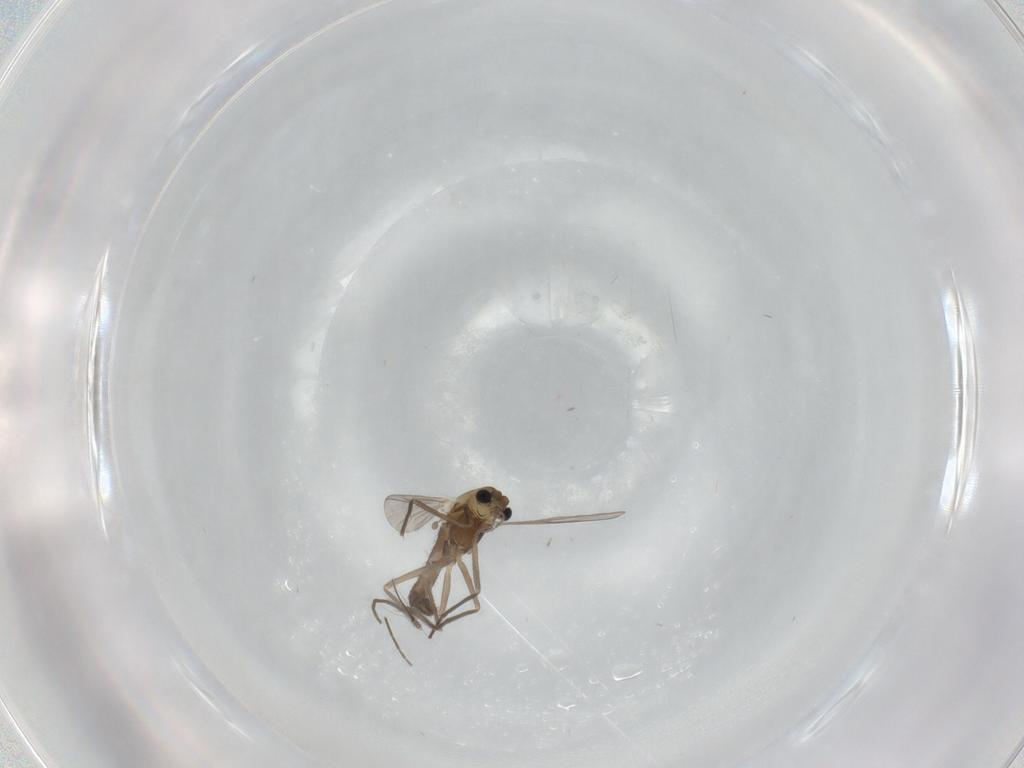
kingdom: Animalia
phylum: Arthropoda
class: Insecta
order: Diptera
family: Chironomidae
